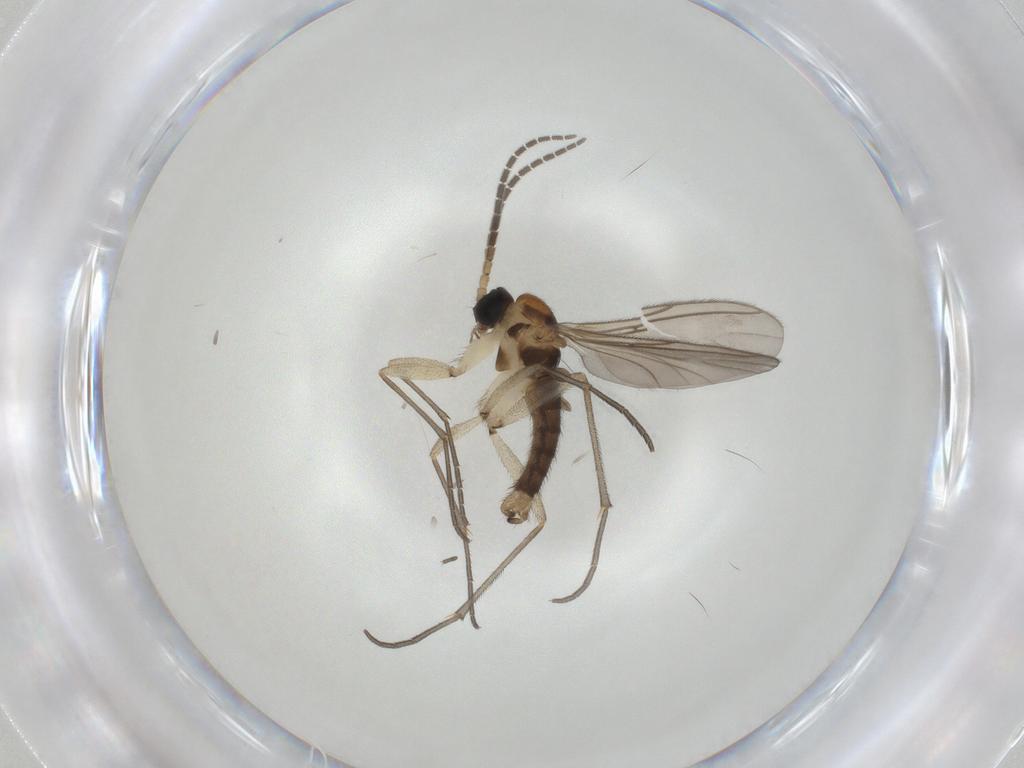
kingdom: Animalia
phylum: Arthropoda
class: Insecta
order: Diptera
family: Sciaridae
